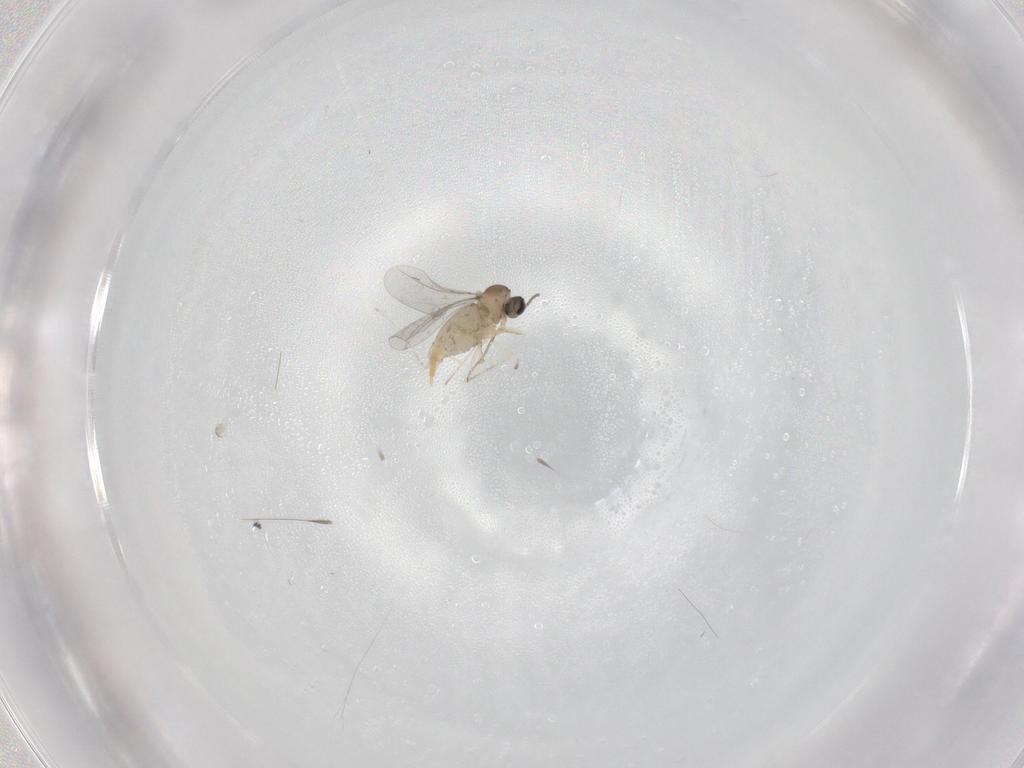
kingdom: Animalia
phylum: Arthropoda
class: Insecta
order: Diptera
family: Cecidomyiidae
